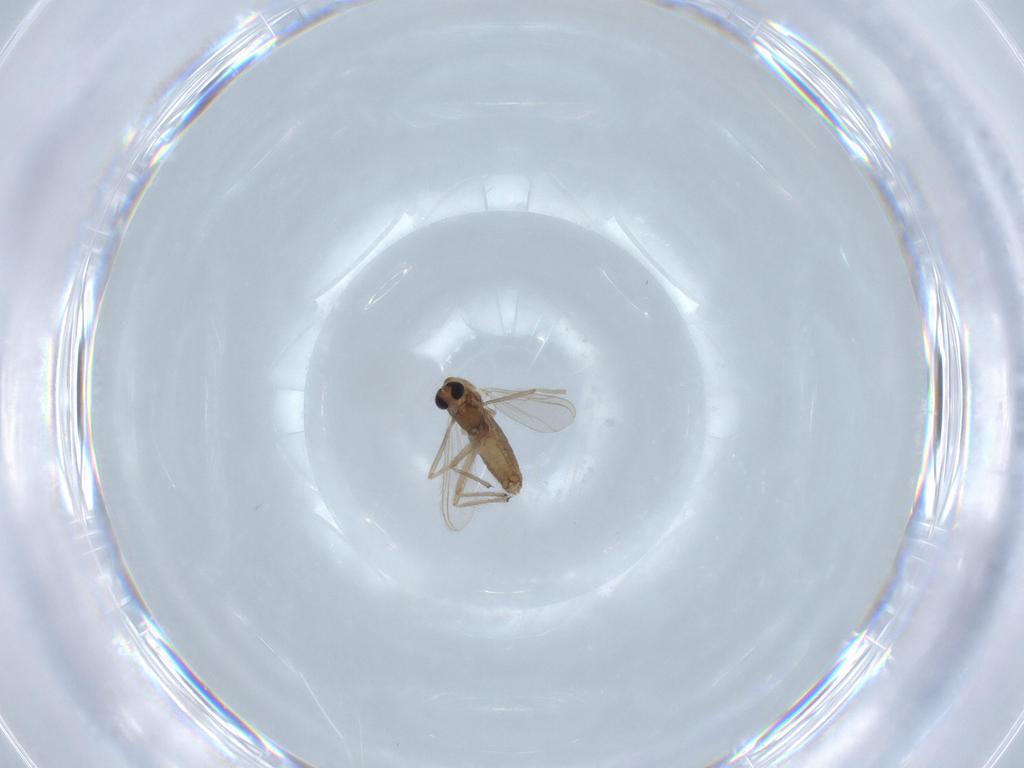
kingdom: Animalia
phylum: Arthropoda
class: Insecta
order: Diptera
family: Chironomidae
